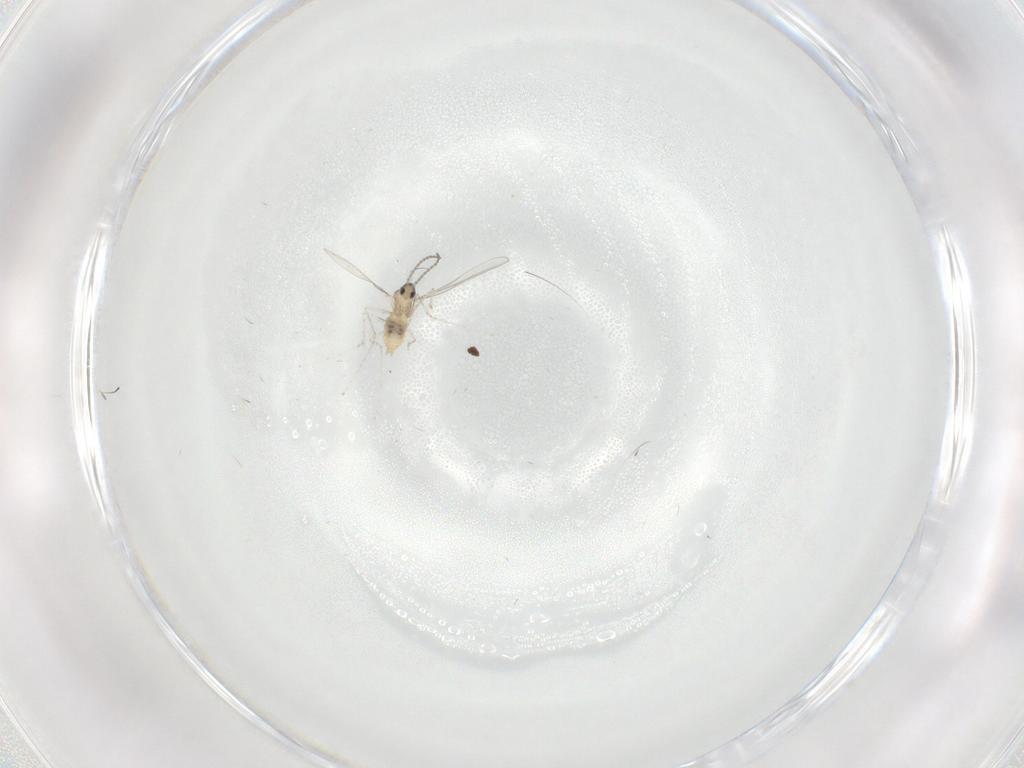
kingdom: Animalia
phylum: Arthropoda
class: Insecta
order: Diptera
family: Cecidomyiidae
